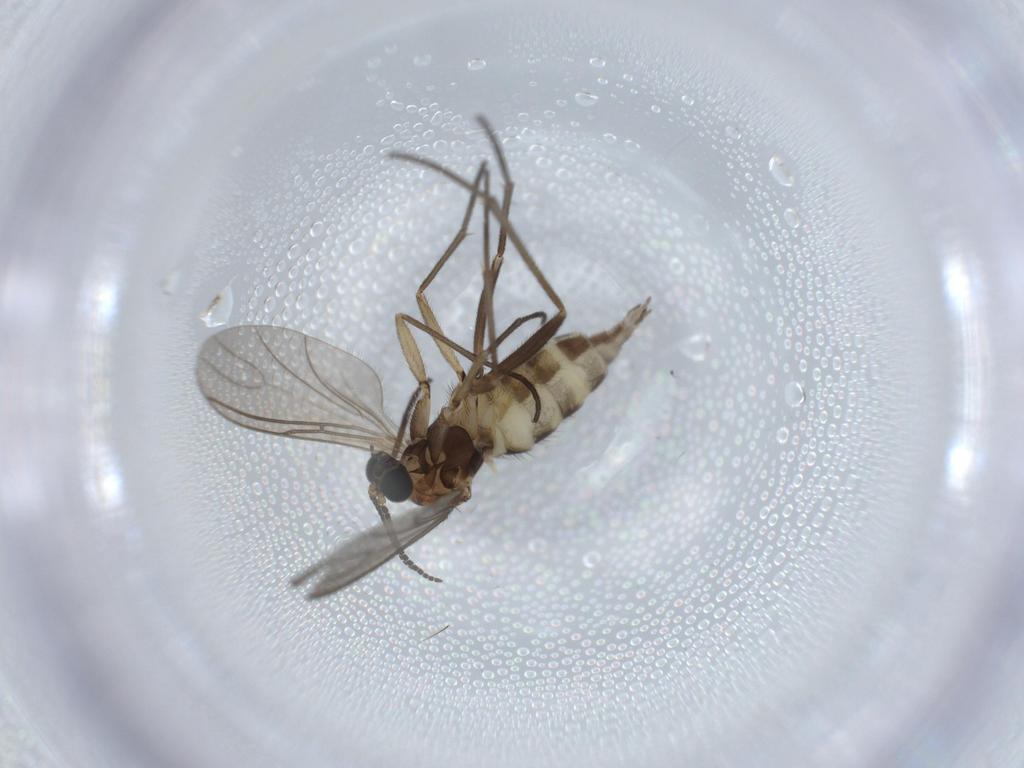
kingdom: Animalia
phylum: Arthropoda
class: Insecta
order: Diptera
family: Sciaridae
